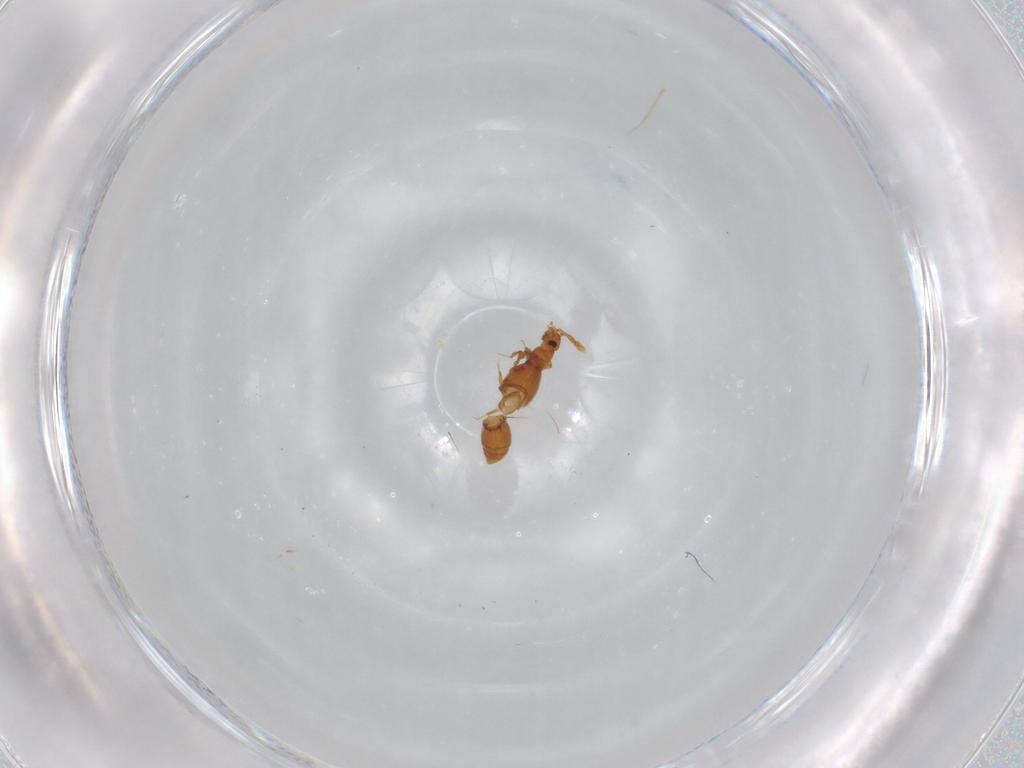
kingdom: Animalia
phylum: Arthropoda
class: Insecta
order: Coleoptera
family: Staphylinidae
